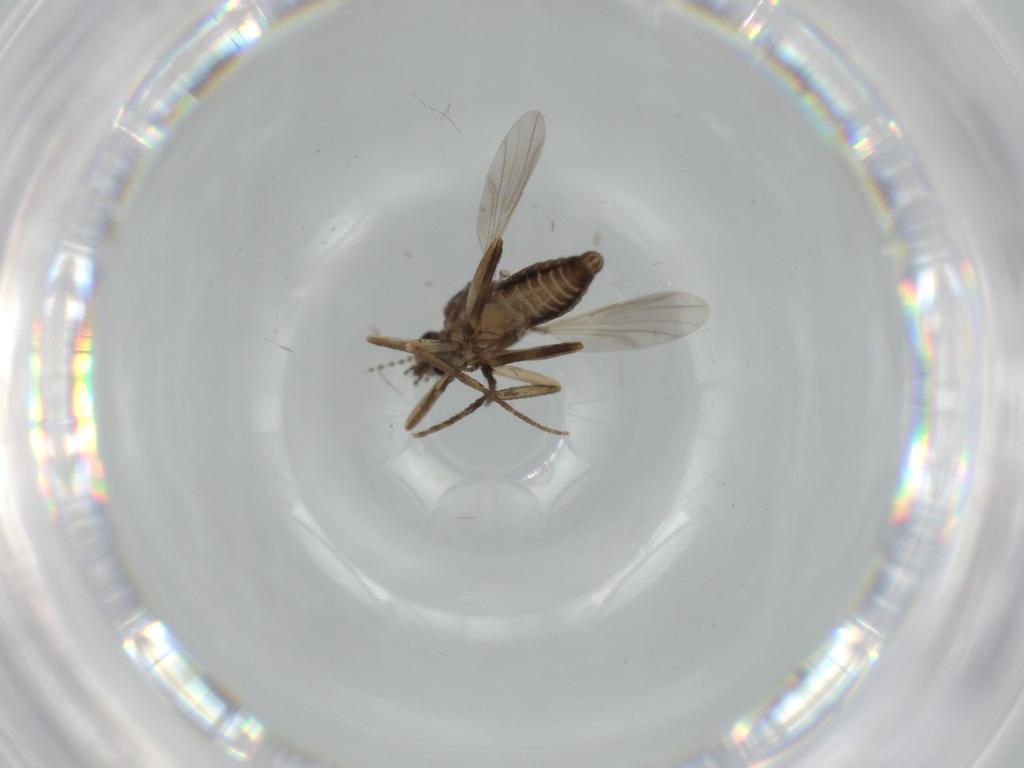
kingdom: Animalia
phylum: Arthropoda
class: Insecta
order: Diptera
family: Ceratopogonidae
